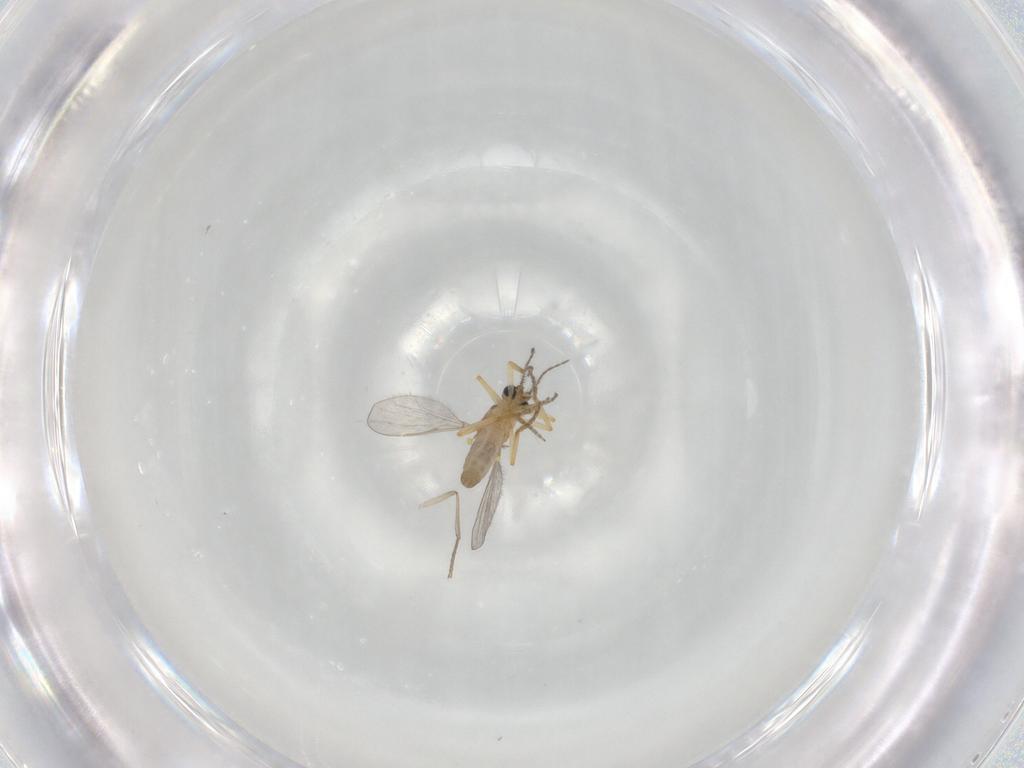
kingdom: Animalia
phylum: Arthropoda
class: Insecta
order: Diptera
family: Ceratopogonidae
